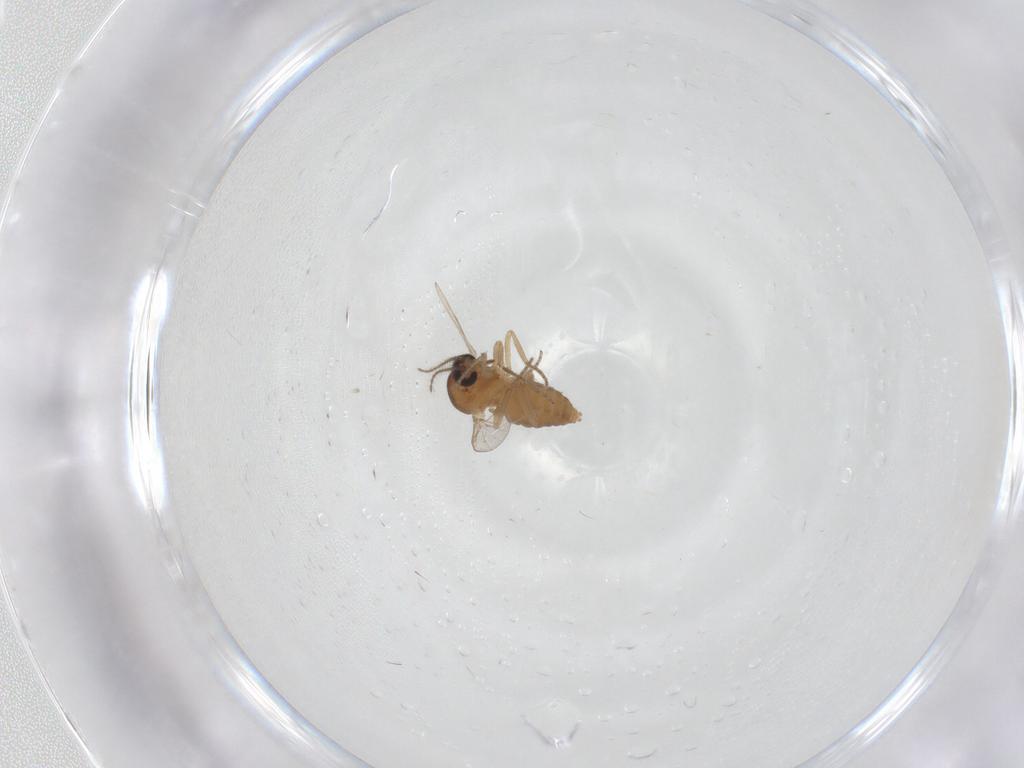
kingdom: Animalia
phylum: Arthropoda
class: Insecta
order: Diptera
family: Ceratopogonidae
